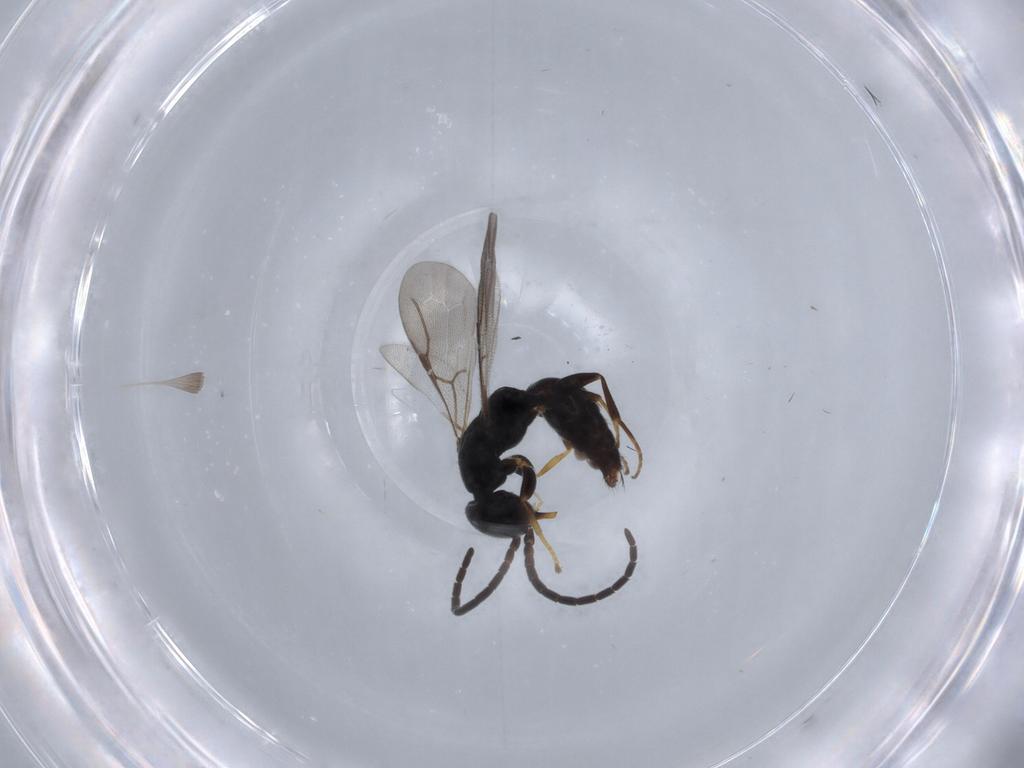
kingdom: Animalia
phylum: Arthropoda
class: Insecta
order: Hymenoptera
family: Bethylidae
